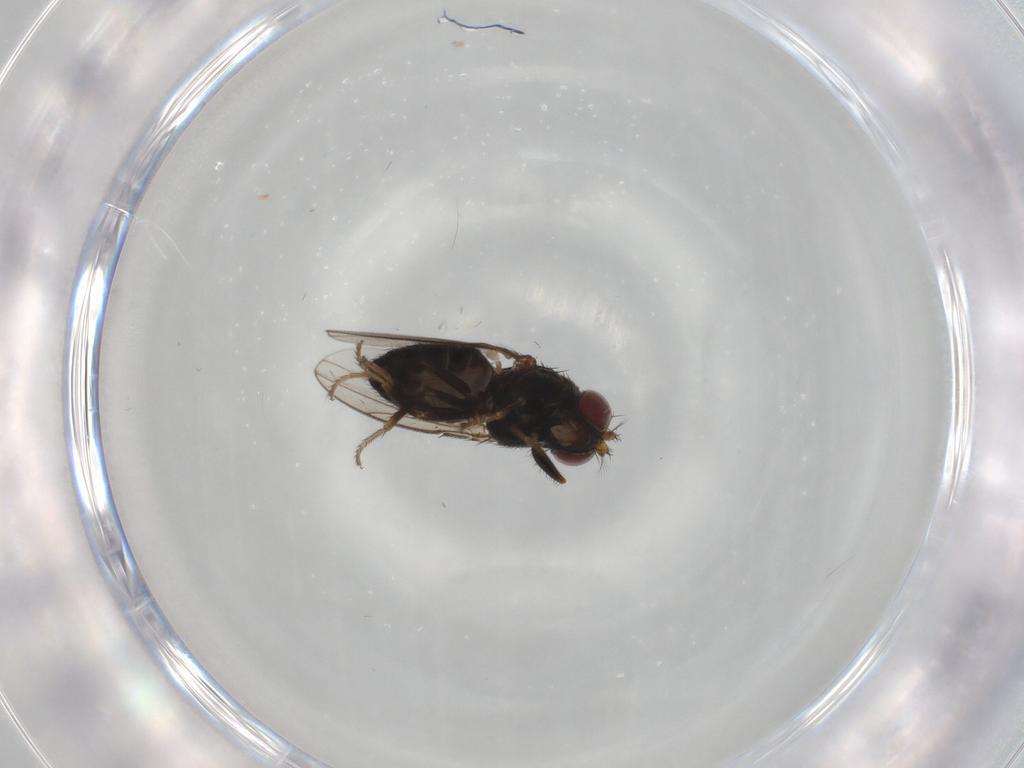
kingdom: Animalia
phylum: Arthropoda
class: Insecta
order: Diptera
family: Ephydridae
